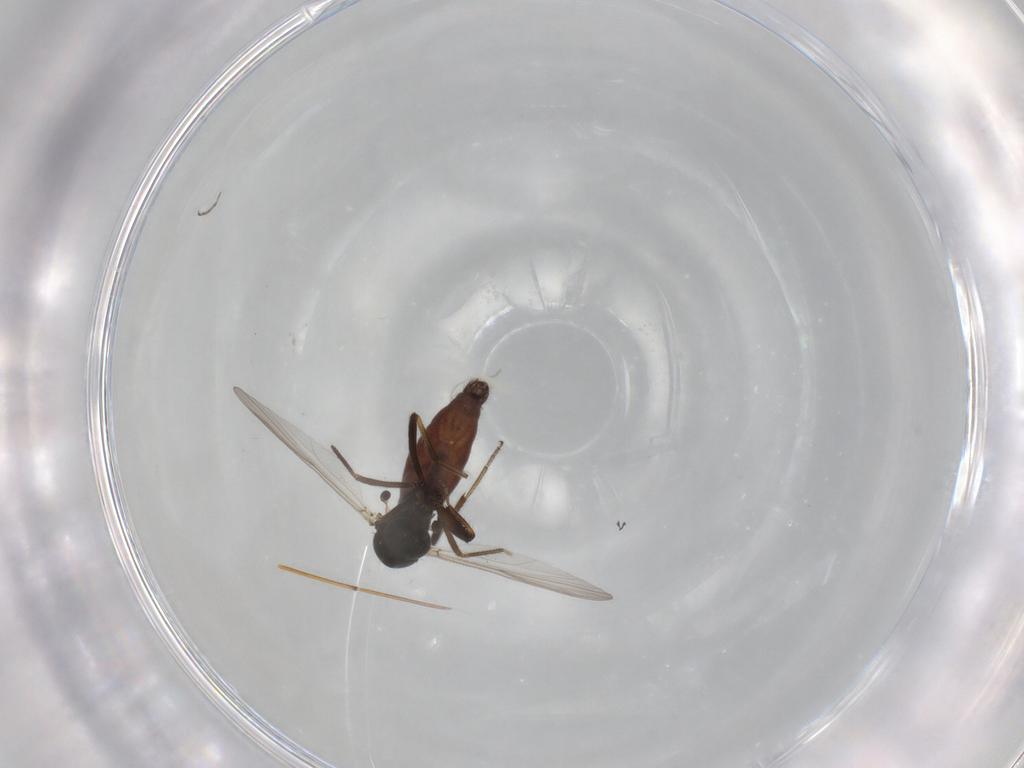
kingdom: Animalia
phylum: Arthropoda
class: Insecta
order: Diptera
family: Ceratopogonidae
